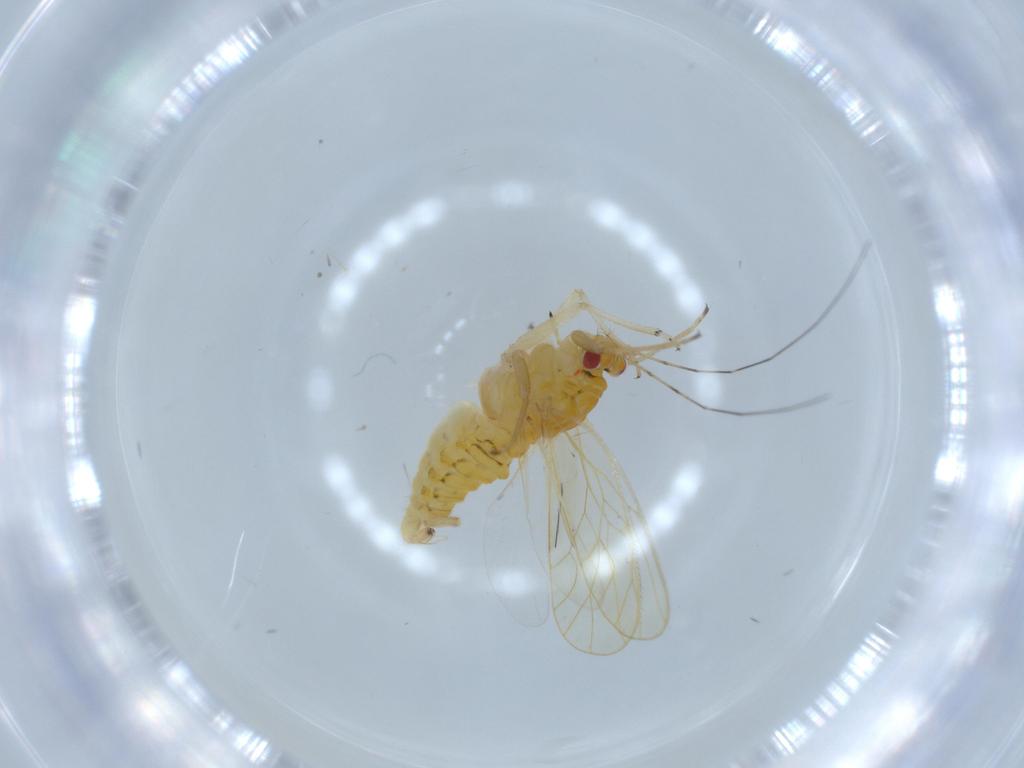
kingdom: Animalia
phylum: Arthropoda
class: Insecta
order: Hemiptera
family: Psyllidae
